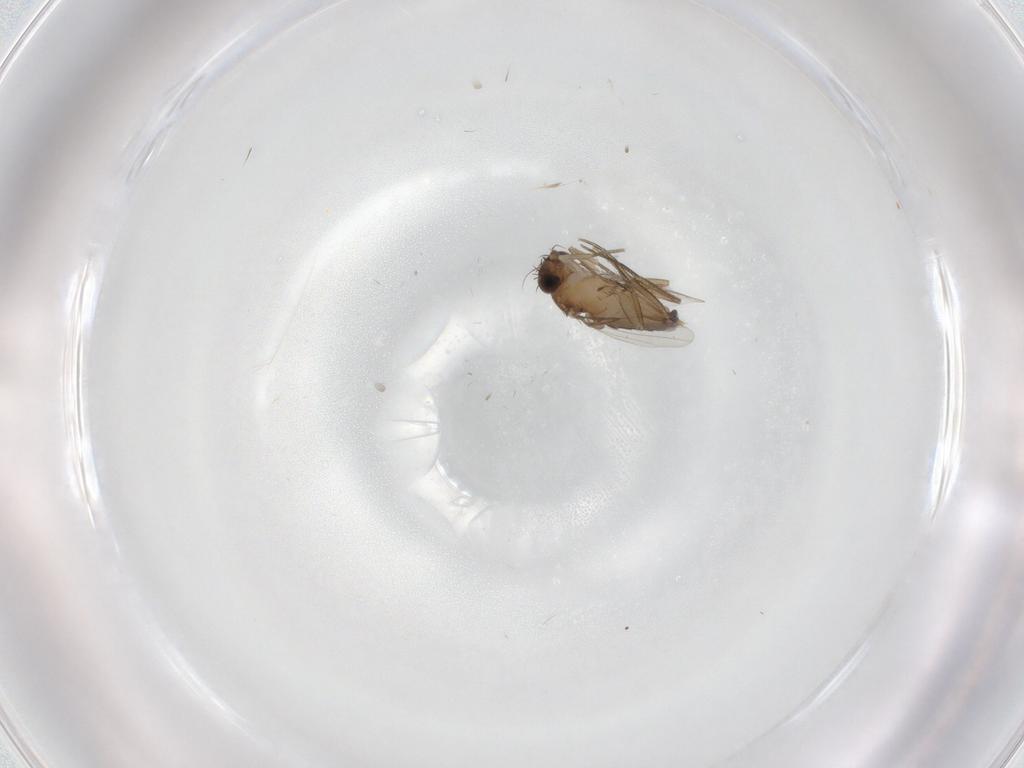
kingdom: Animalia
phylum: Arthropoda
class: Insecta
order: Diptera
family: Phoridae
